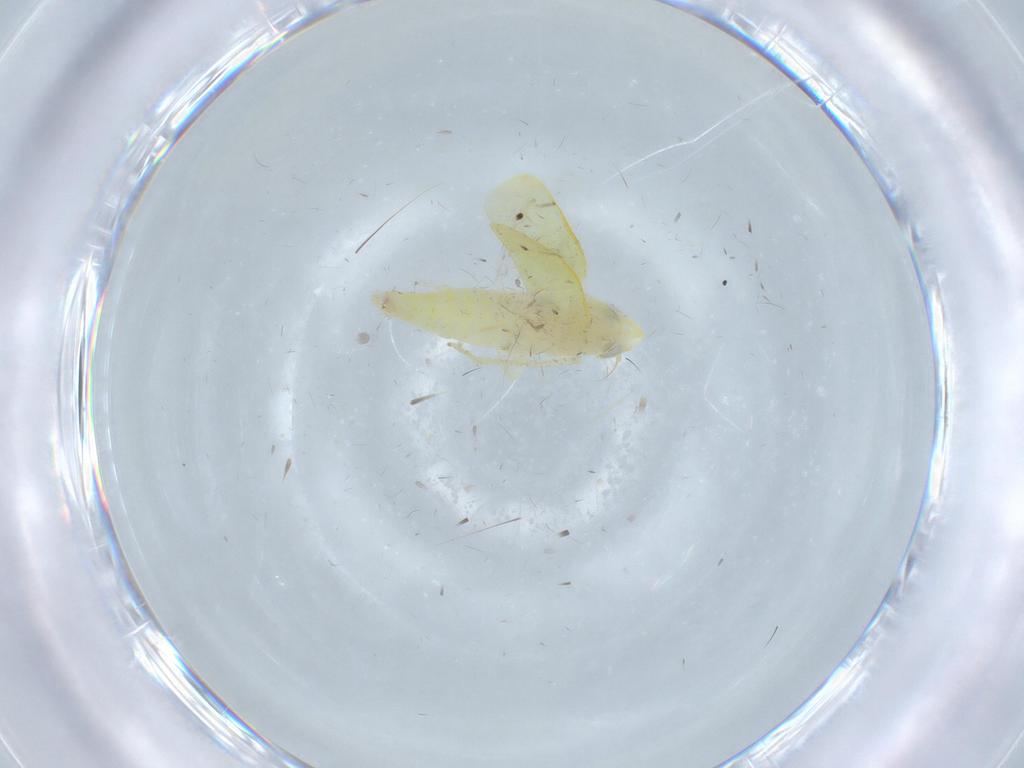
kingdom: Animalia
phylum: Arthropoda
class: Insecta
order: Hemiptera
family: Cicadellidae
